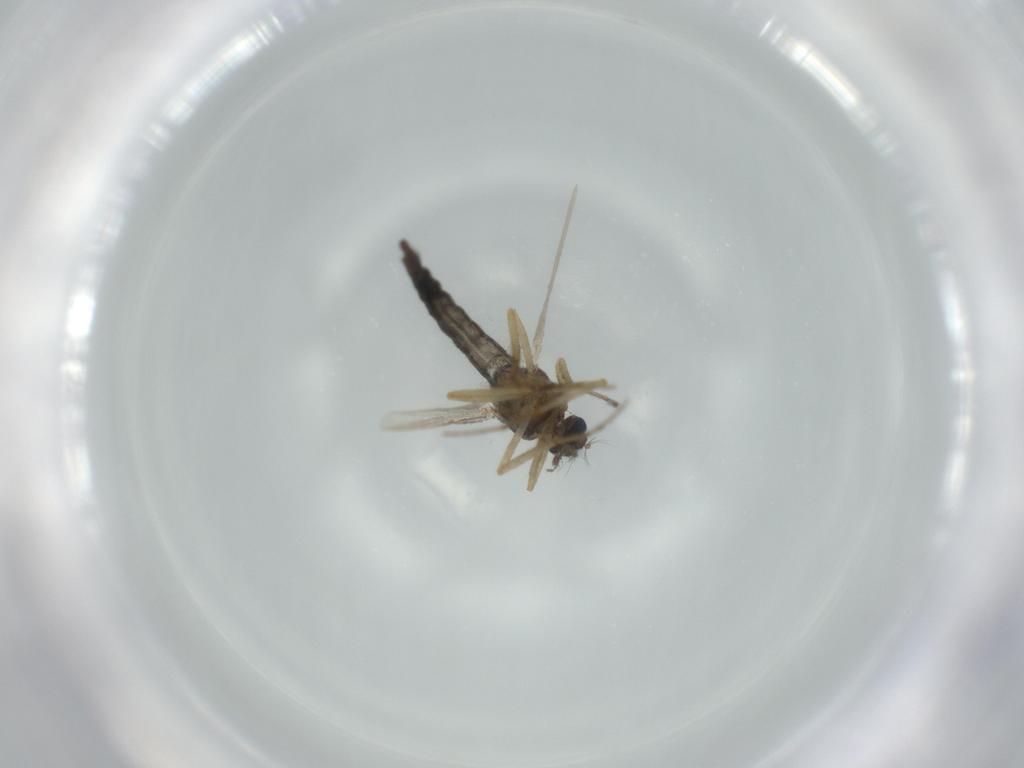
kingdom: Animalia
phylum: Arthropoda
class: Insecta
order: Diptera
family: Ceratopogonidae
